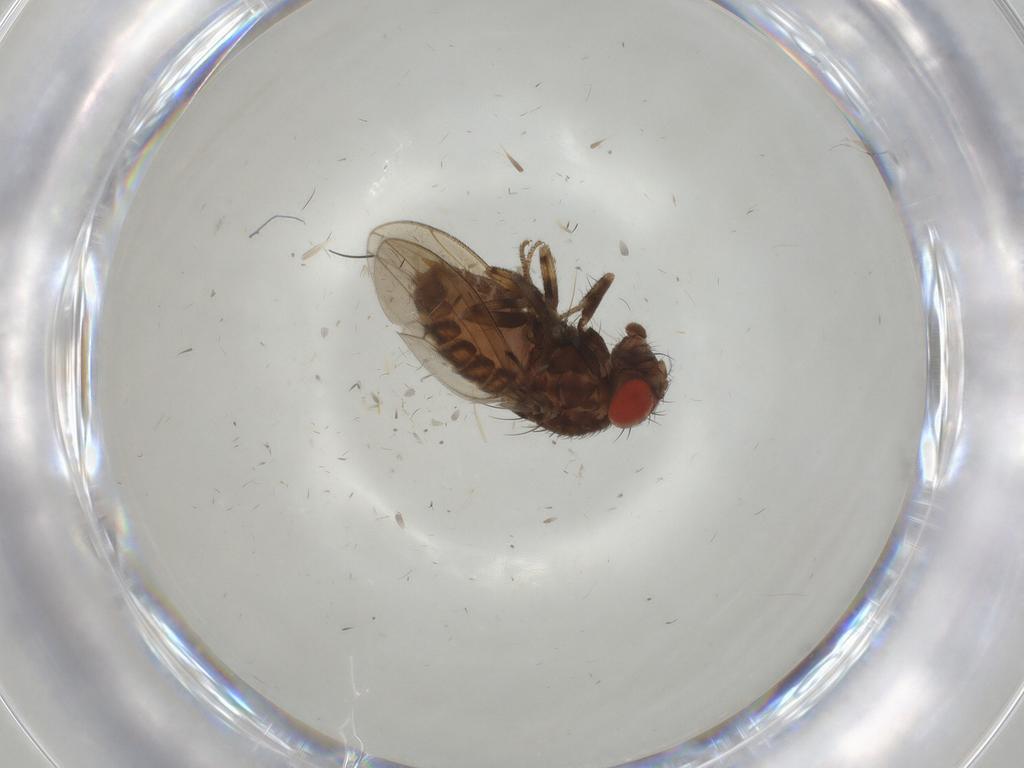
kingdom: Animalia
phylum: Arthropoda
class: Insecta
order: Diptera
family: Drosophilidae
